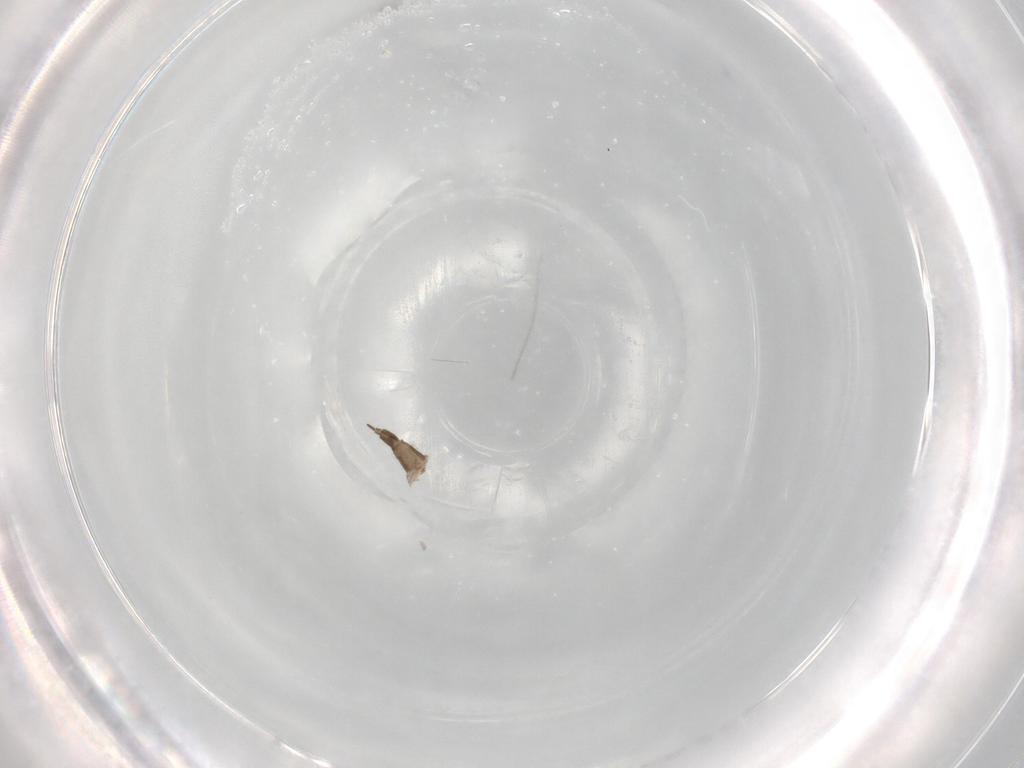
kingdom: Animalia
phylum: Arthropoda
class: Insecta
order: Diptera
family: Hybotidae
